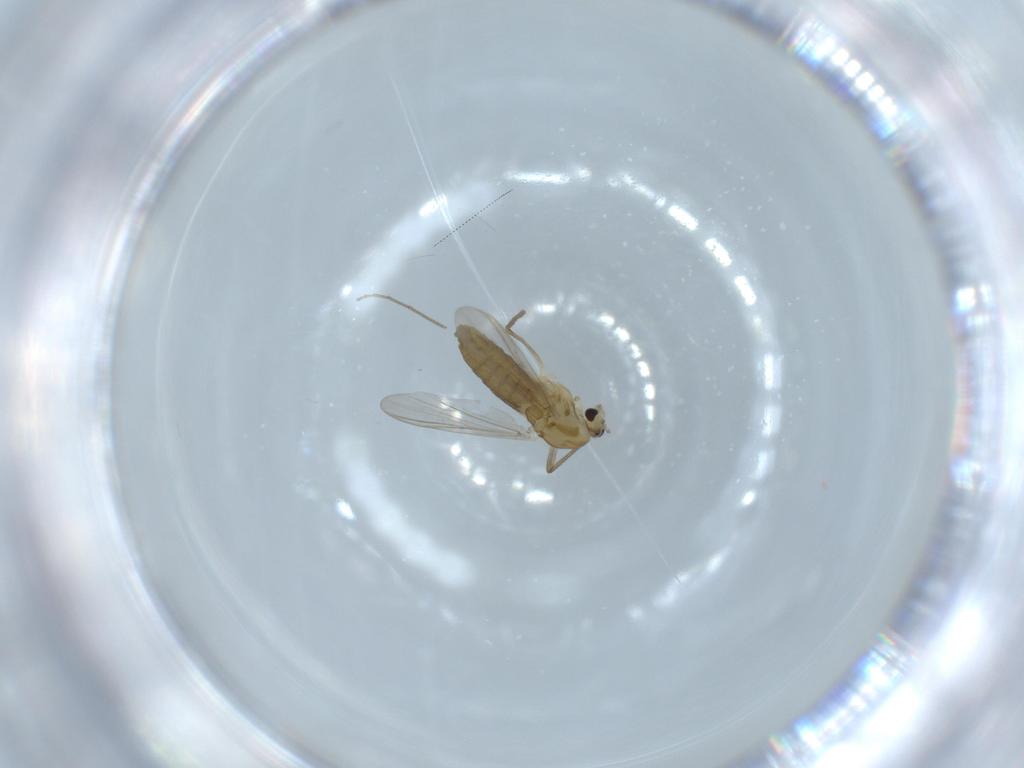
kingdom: Animalia
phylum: Arthropoda
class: Insecta
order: Diptera
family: Chironomidae
